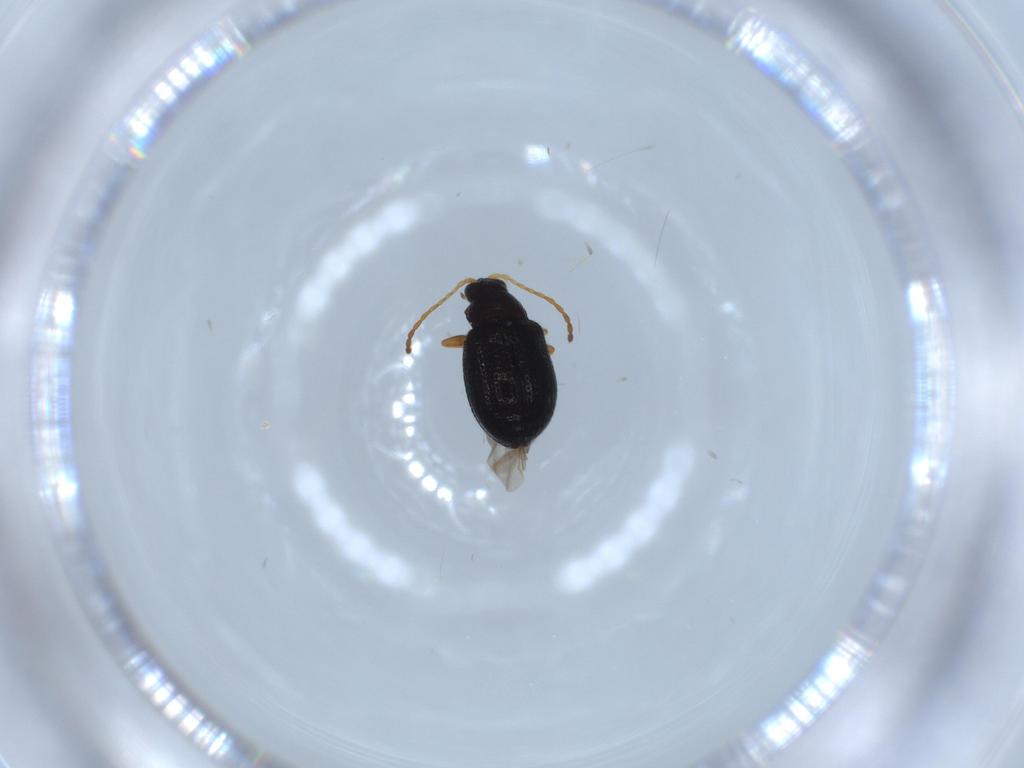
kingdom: Animalia
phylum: Arthropoda
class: Insecta
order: Coleoptera
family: Chrysomelidae
